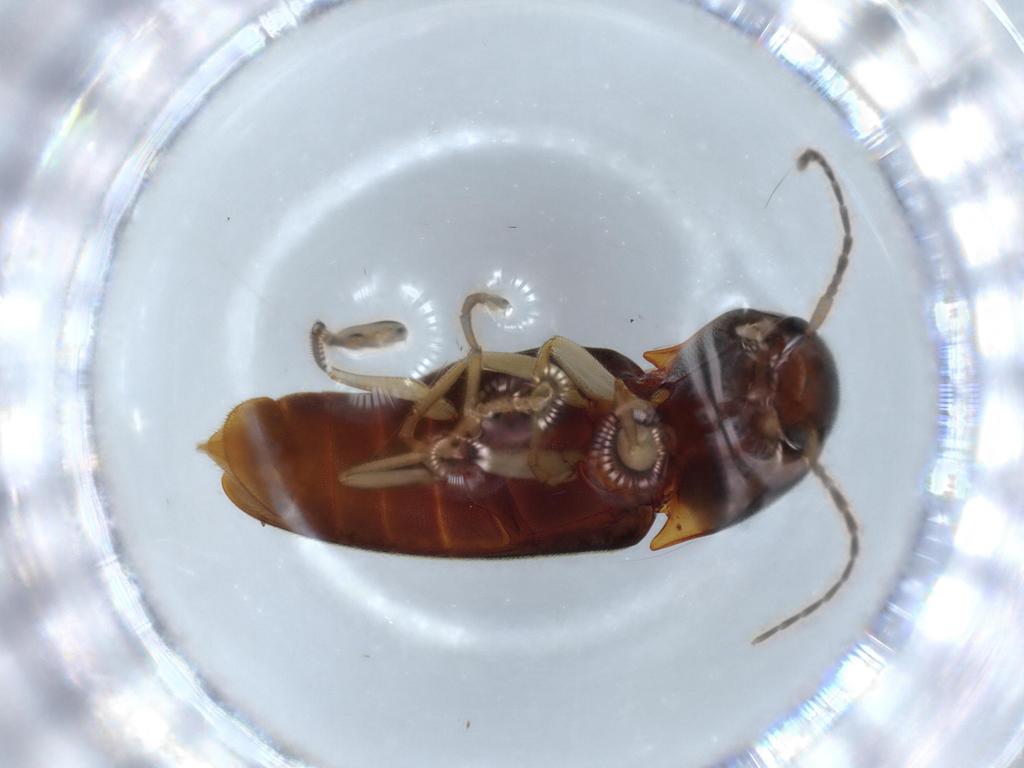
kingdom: Animalia
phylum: Arthropoda
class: Insecta
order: Coleoptera
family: Elateridae
